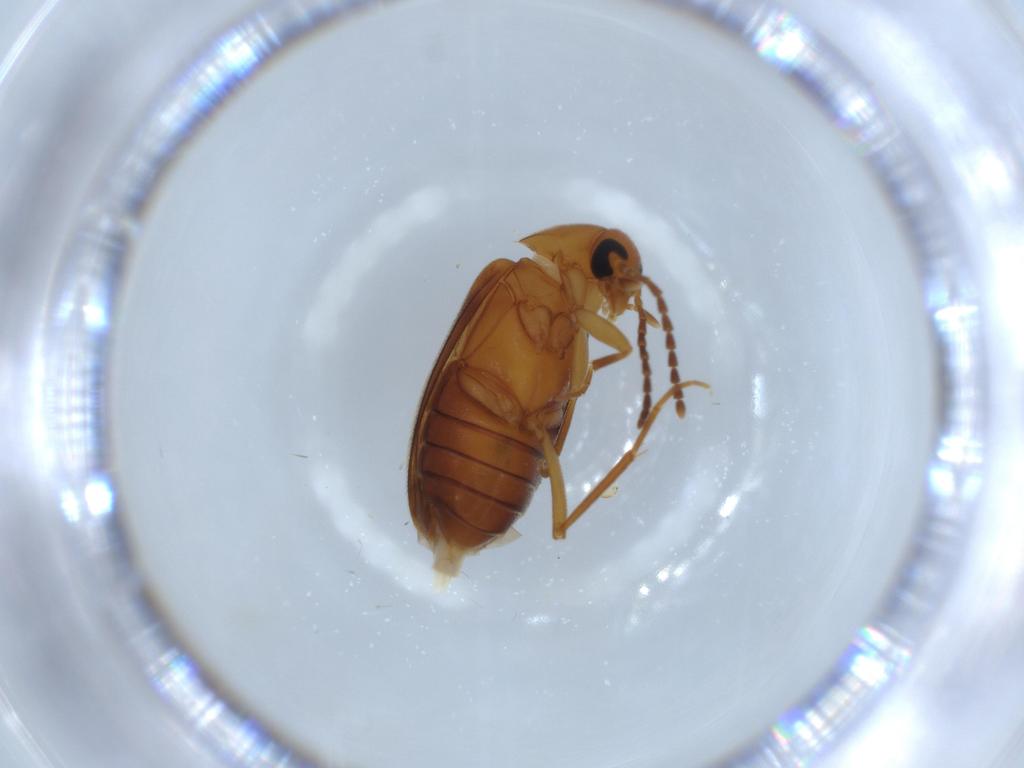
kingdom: Animalia
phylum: Arthropoda
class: Insecta
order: Coleoptera
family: Scraptiidae
